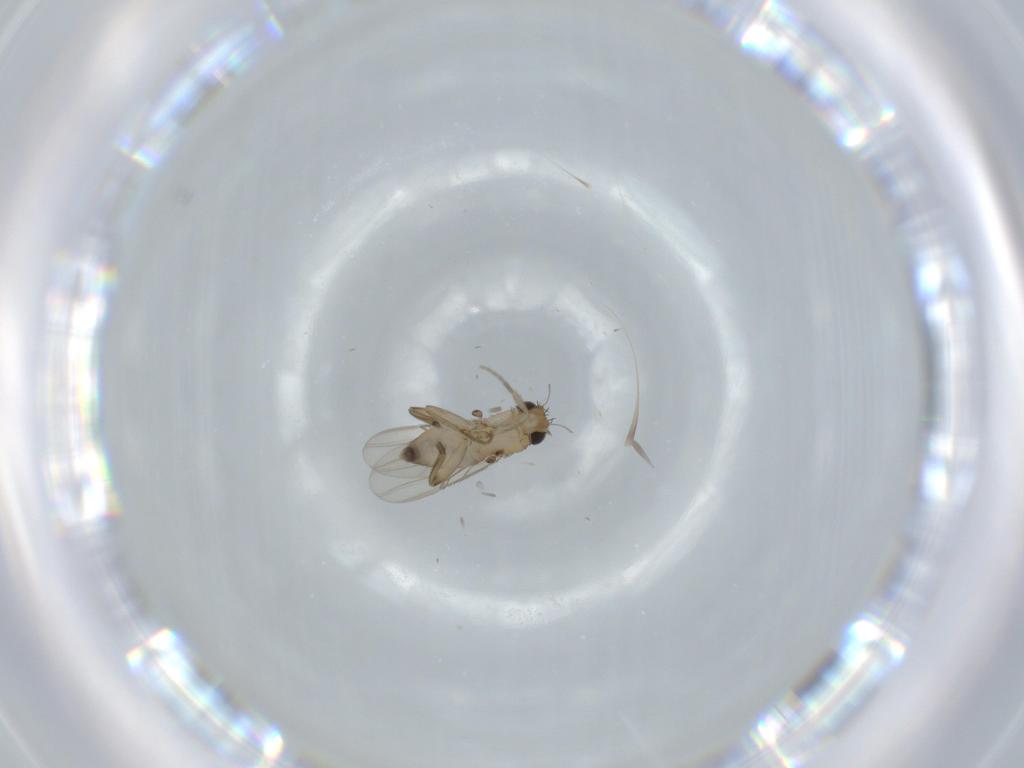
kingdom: Animalia
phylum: Arthropoda
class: Insecta
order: Diptera
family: Phoridae
